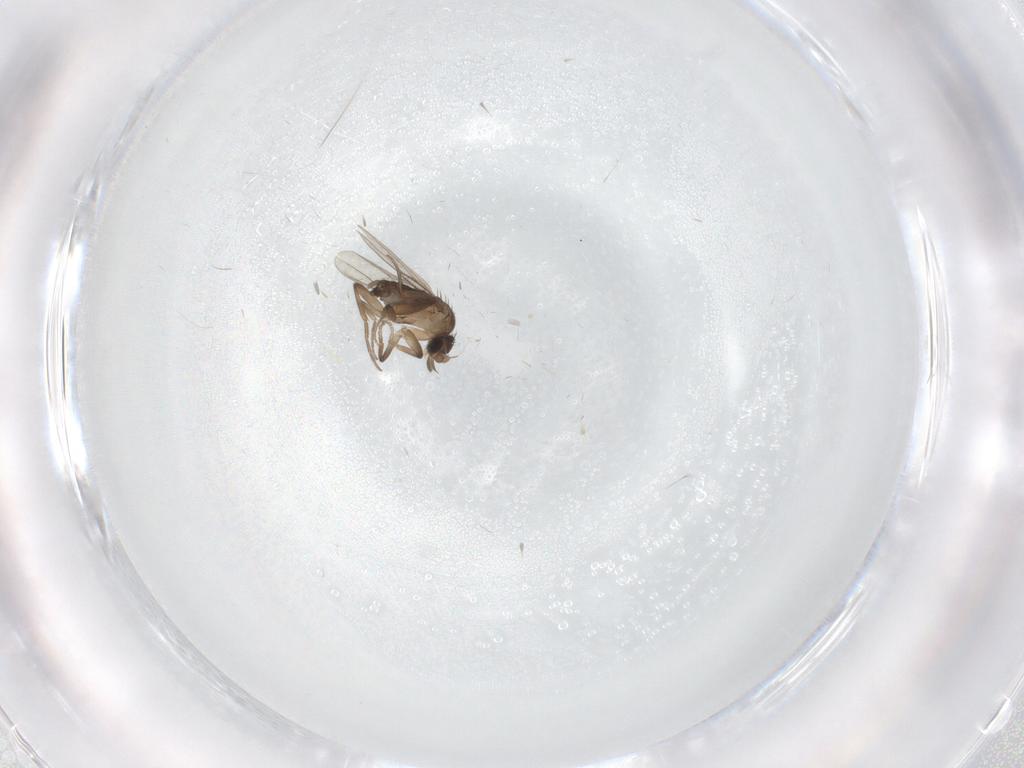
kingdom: Animalia
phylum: Arthropoda
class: Insecta
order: Diptera
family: Cecidomyiidae
